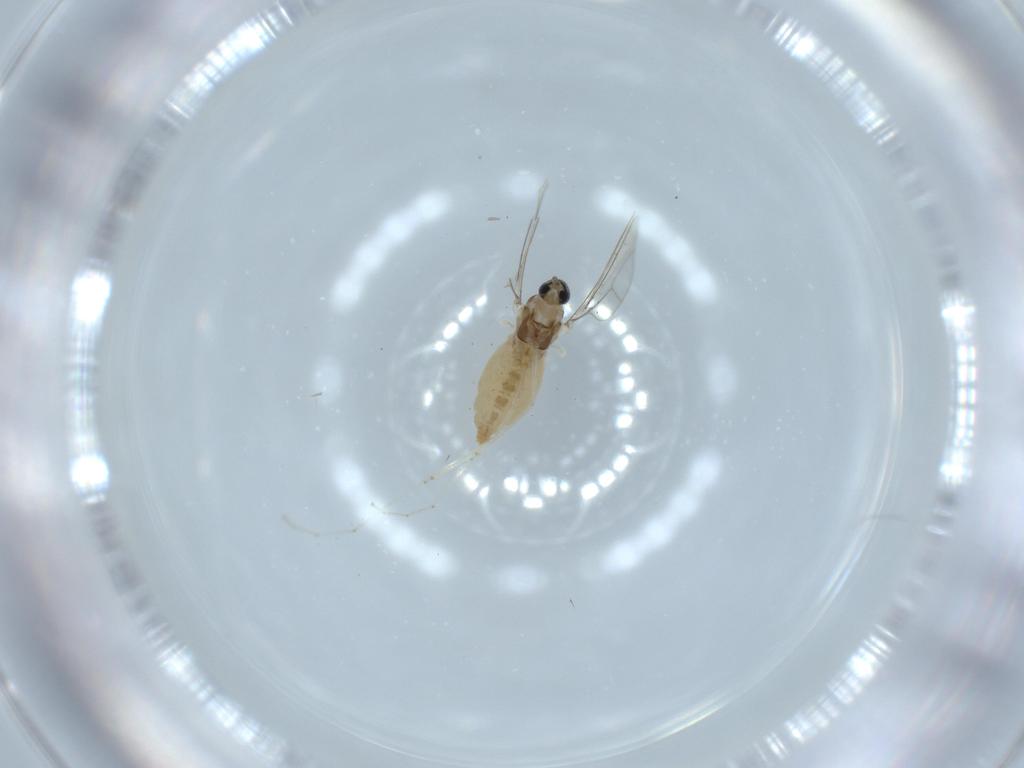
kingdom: Animalia
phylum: Arthropoda
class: Insecta
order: Diptera
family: Cecidomyiidae
